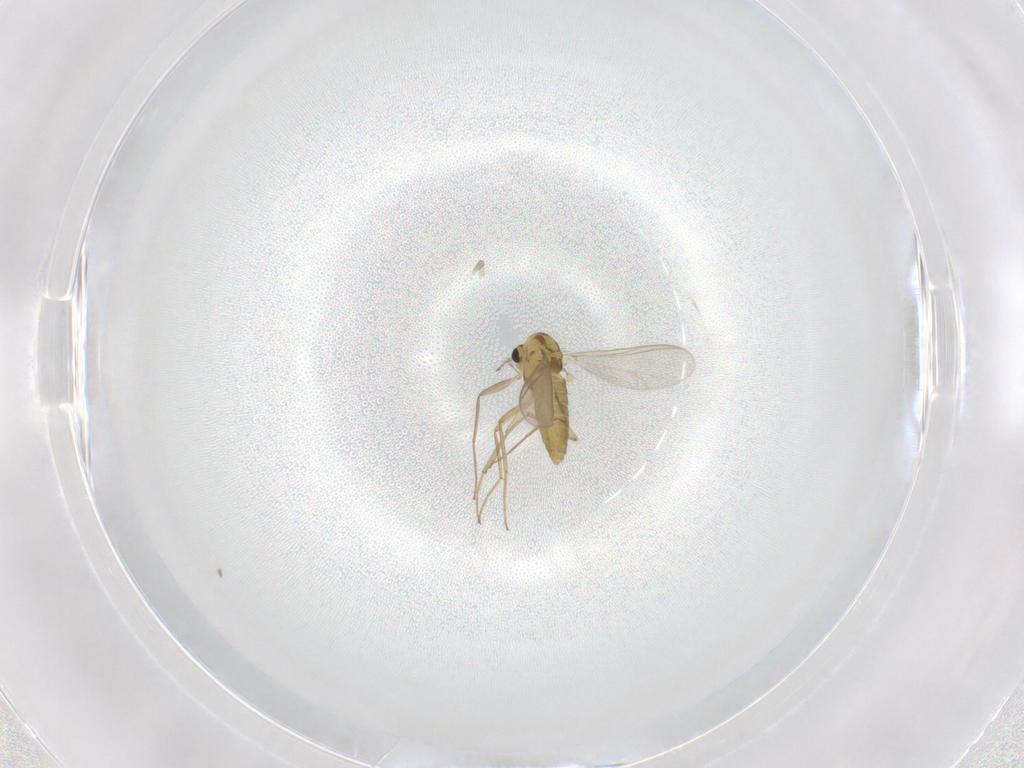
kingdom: Animalia
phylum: Arthropoda
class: Insecta
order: Diptera
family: Chironomidae
